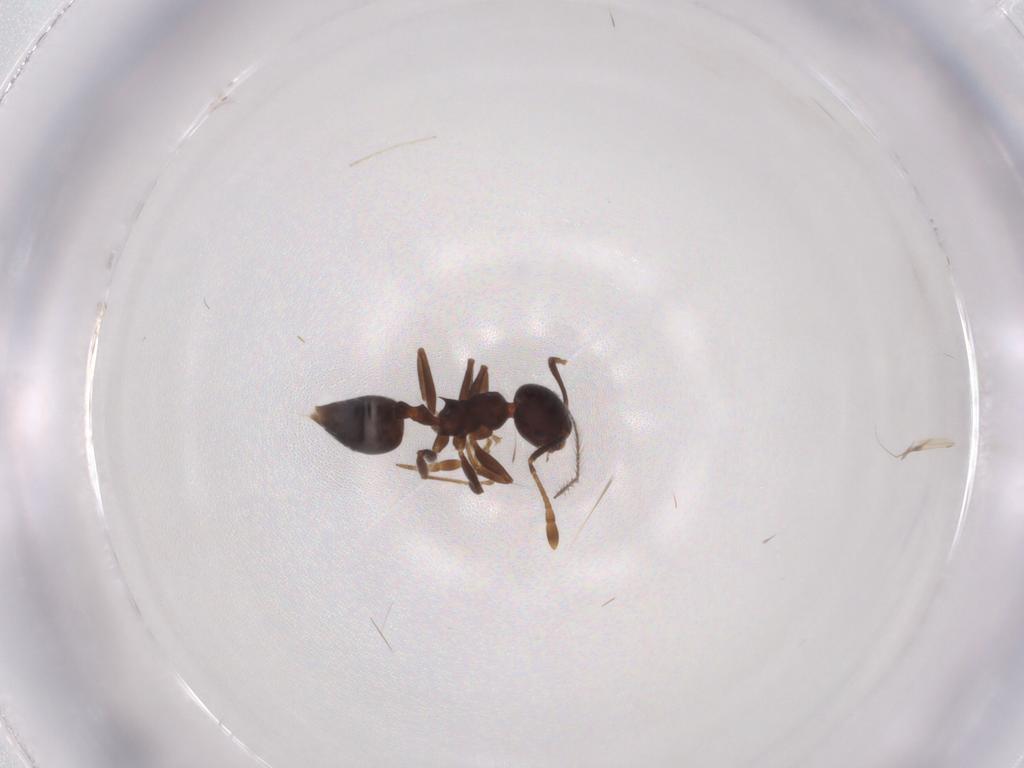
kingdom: Animalia
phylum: Arthropoda
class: Insecta
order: Hymenoptera
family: Formicidae
